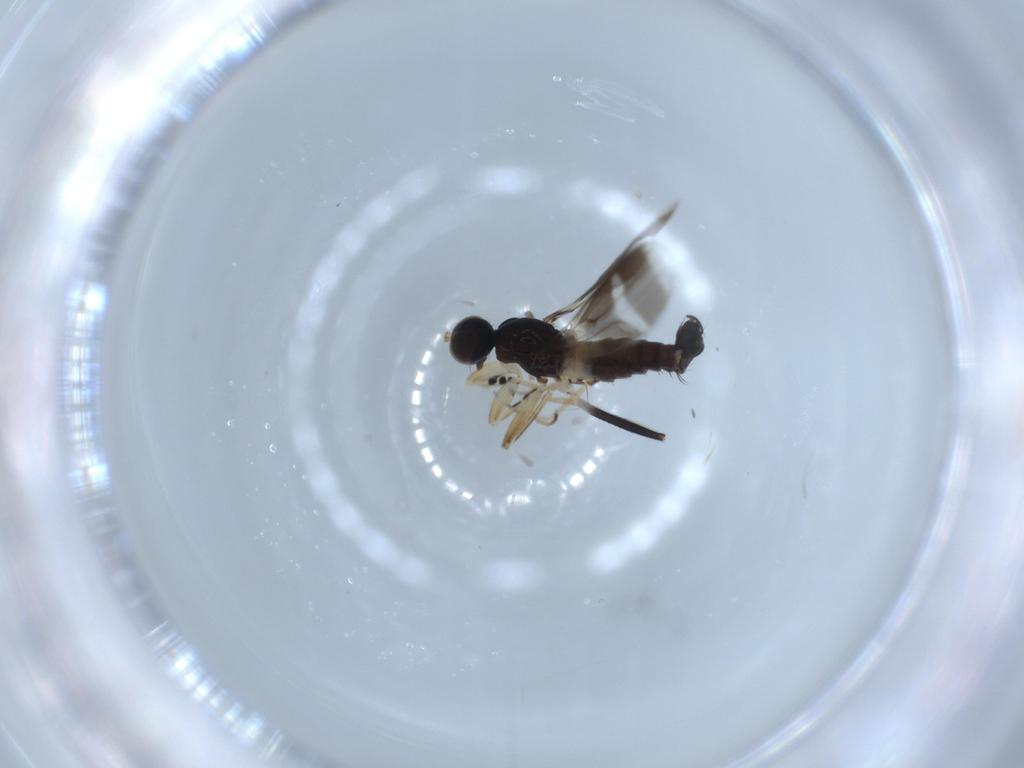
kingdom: Animalia
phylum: Arthropoda
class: Insecta
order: Diptera
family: Hybotidae
